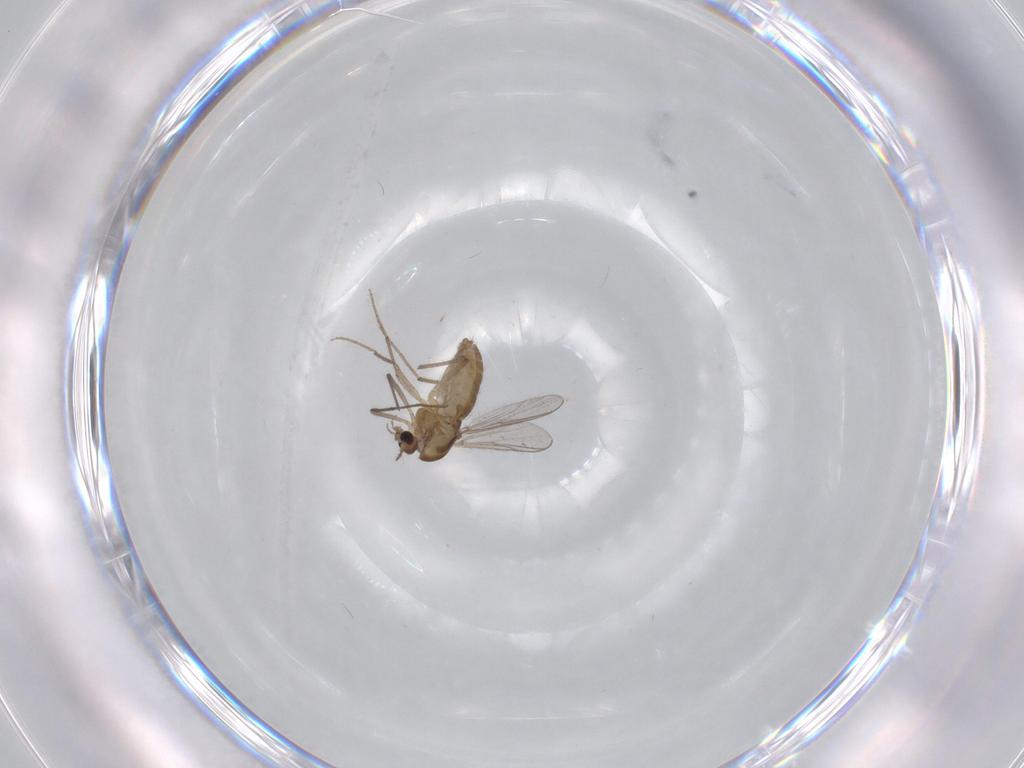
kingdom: Animalia
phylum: Arthropoda
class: Insecta
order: Diptera
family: Chironomidae
